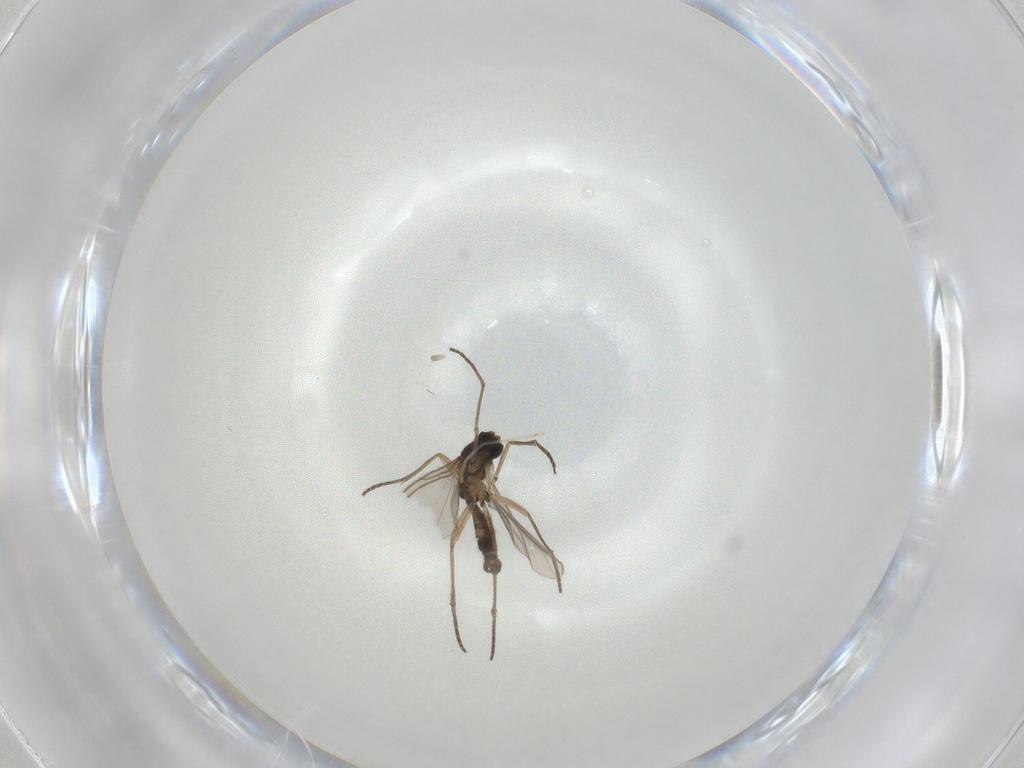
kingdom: Animalia
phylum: Arthropoda
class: Insecta
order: Diptera
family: Sciaridae
